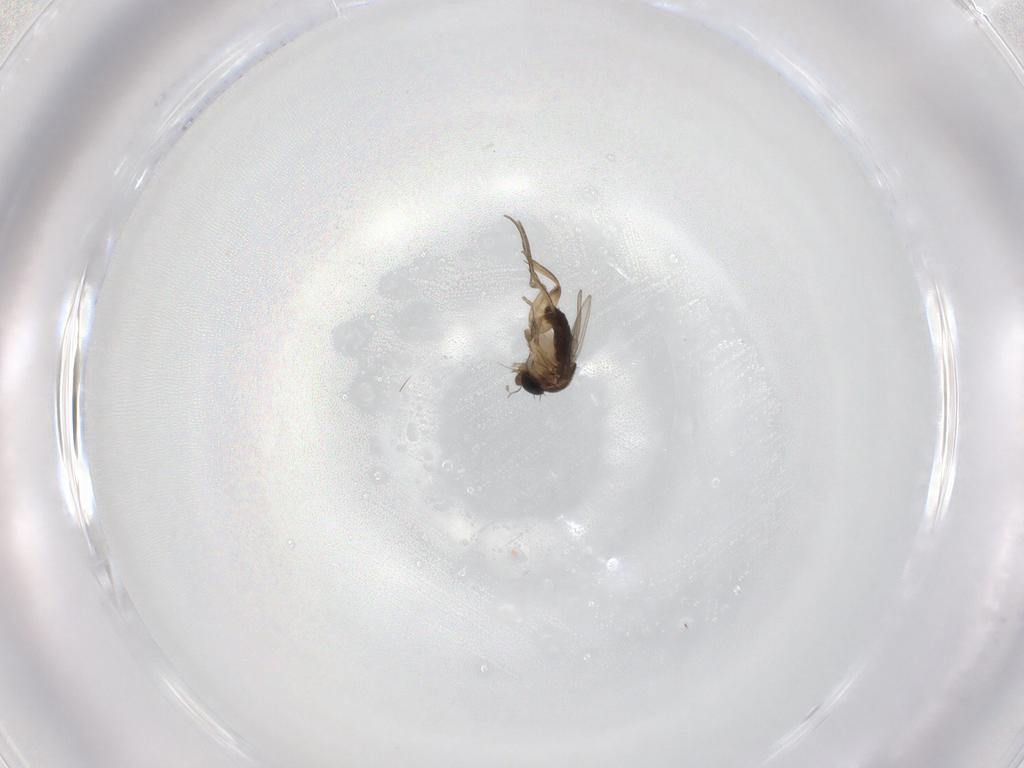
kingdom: Animalia
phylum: Arthropoda
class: Insecta
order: Diptera
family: Phoridae
